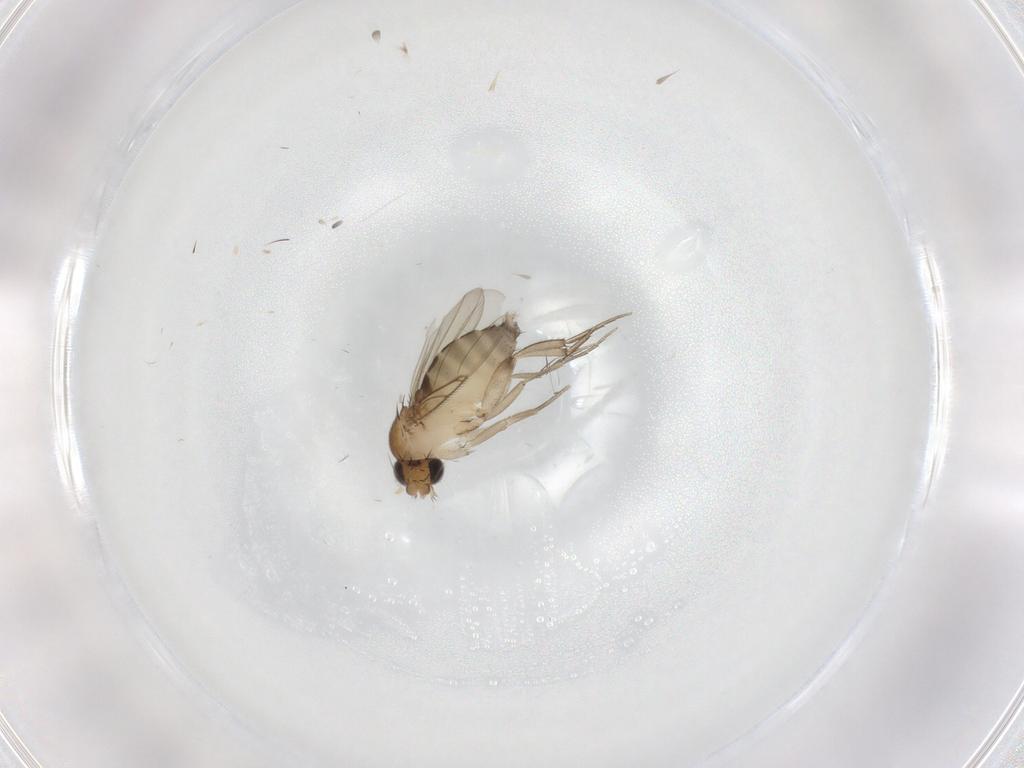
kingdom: Animalia
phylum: Arthropoda
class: Insecta
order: Diptera
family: Phoridae
